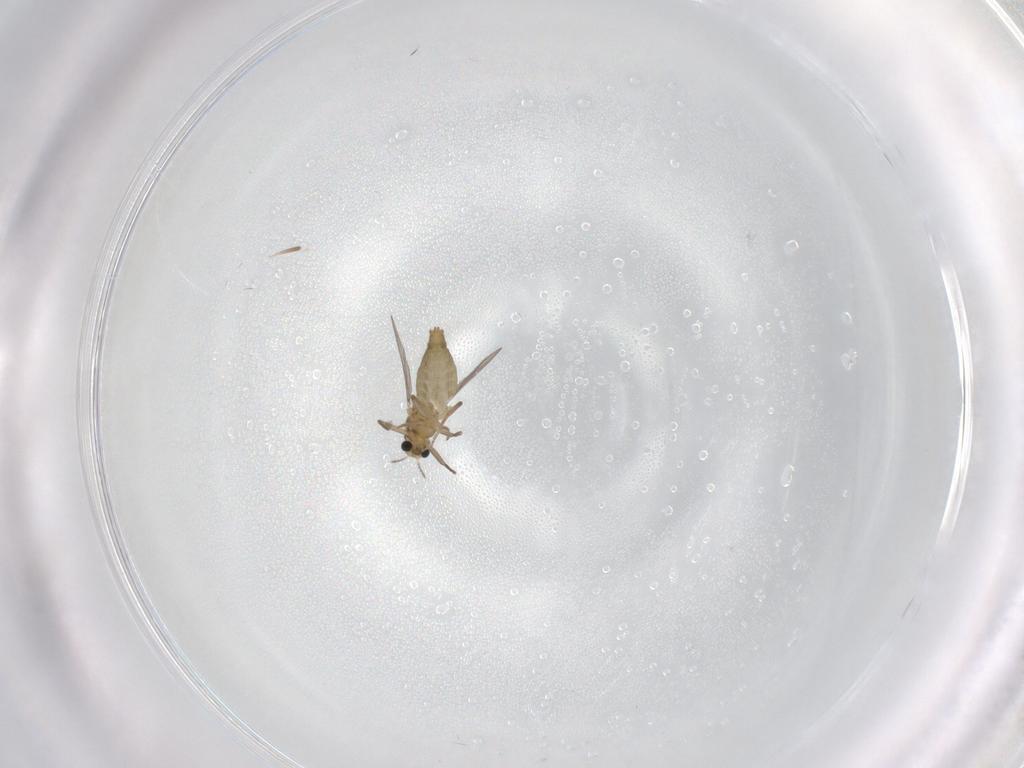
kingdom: Animalia
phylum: Arthropoda
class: Insecta
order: Diptera
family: Chironomidae
